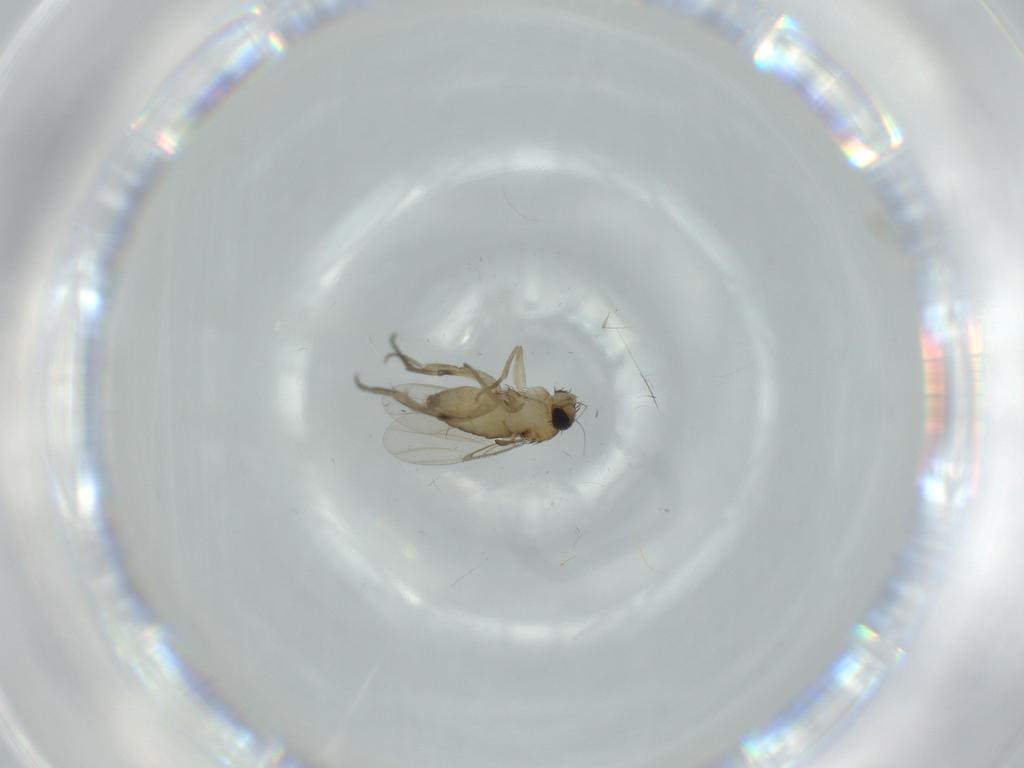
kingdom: Animalia
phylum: Arthropoda
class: Insecta
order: Diptera
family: Phoridae
